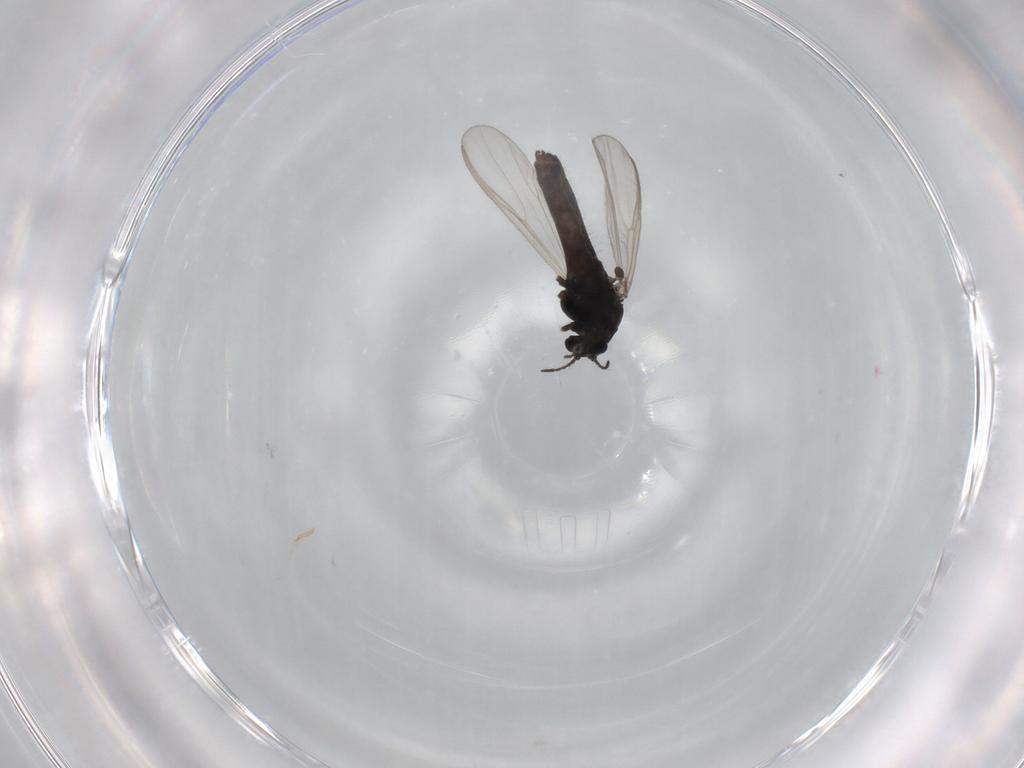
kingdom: Animalia
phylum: Arthropoda
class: Insecta
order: Diptera
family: Chironomidae
